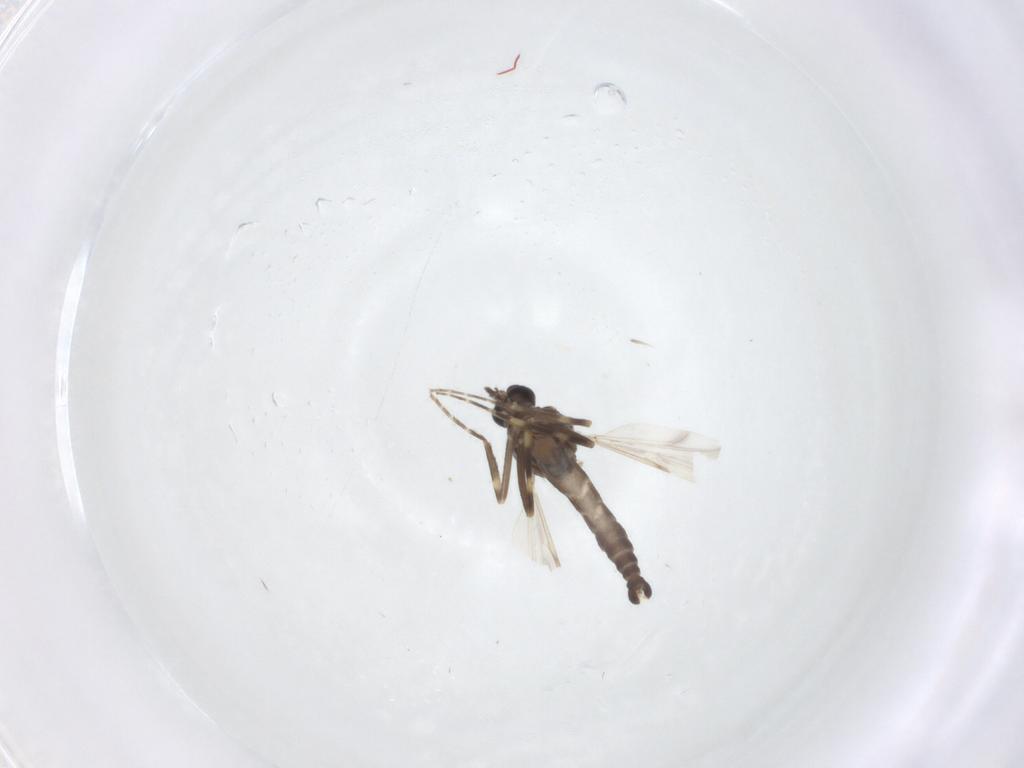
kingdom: Animalia
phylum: Arthropoda
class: Insecta
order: Diptera
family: Ceratopogonidae
